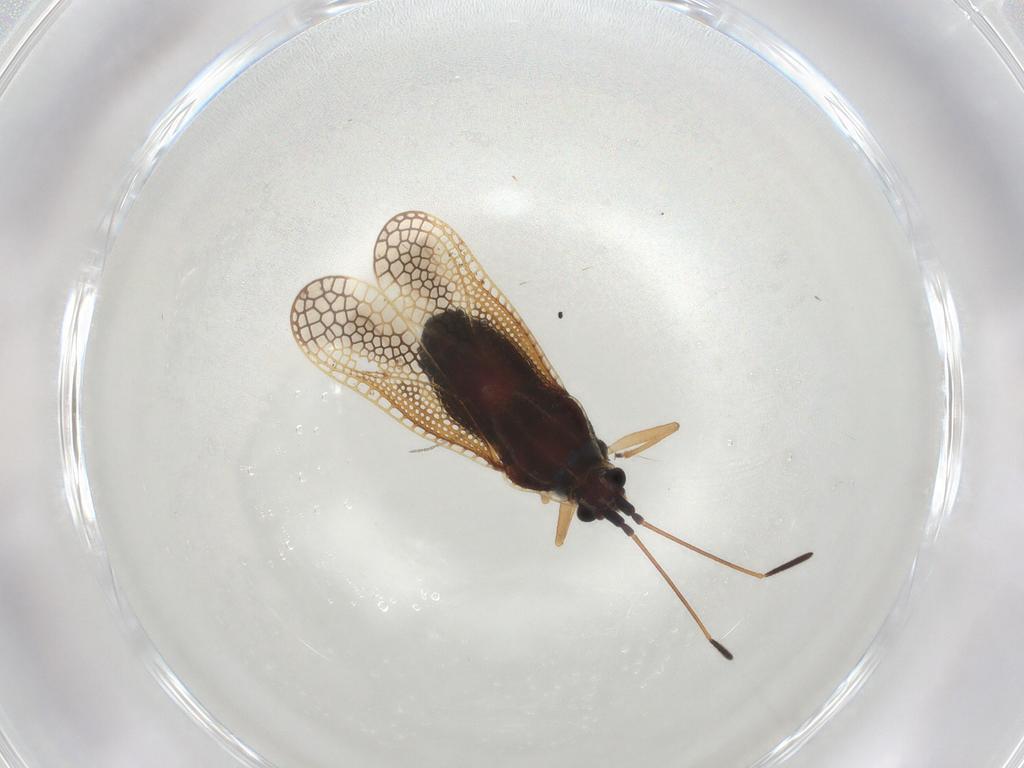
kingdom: Animalia
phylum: Arthropoda
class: Insecta
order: Hemiptera
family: Tingidae
